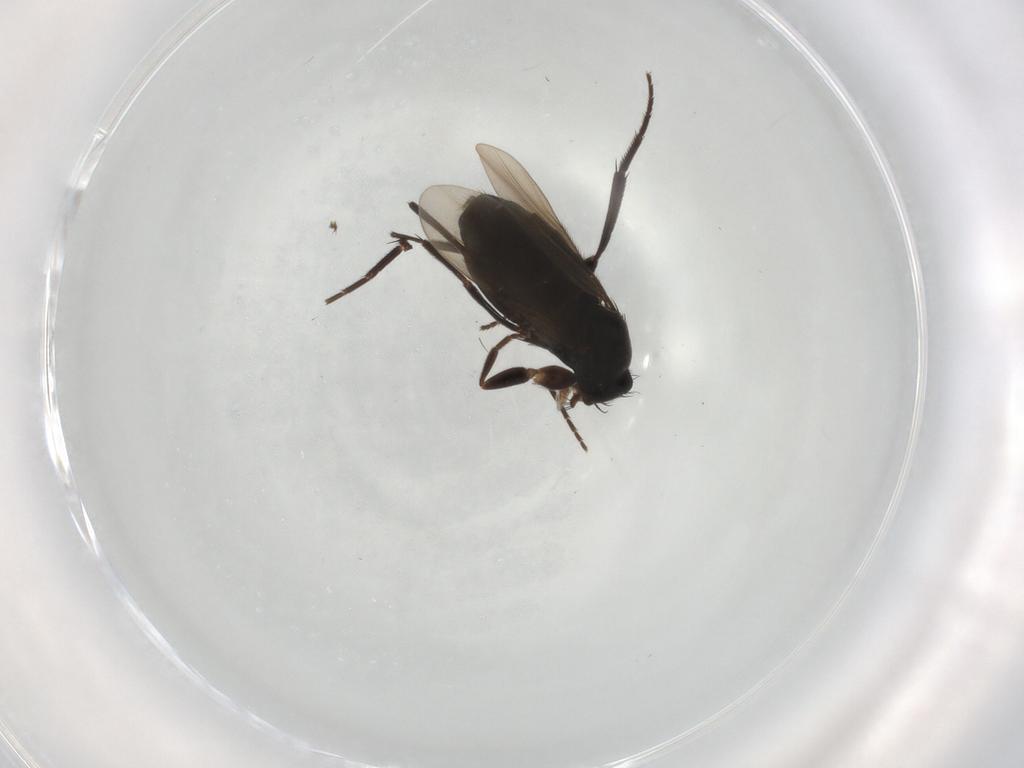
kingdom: Animalia
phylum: Arthropoda
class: Insecta
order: Diptera
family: Phoridae
